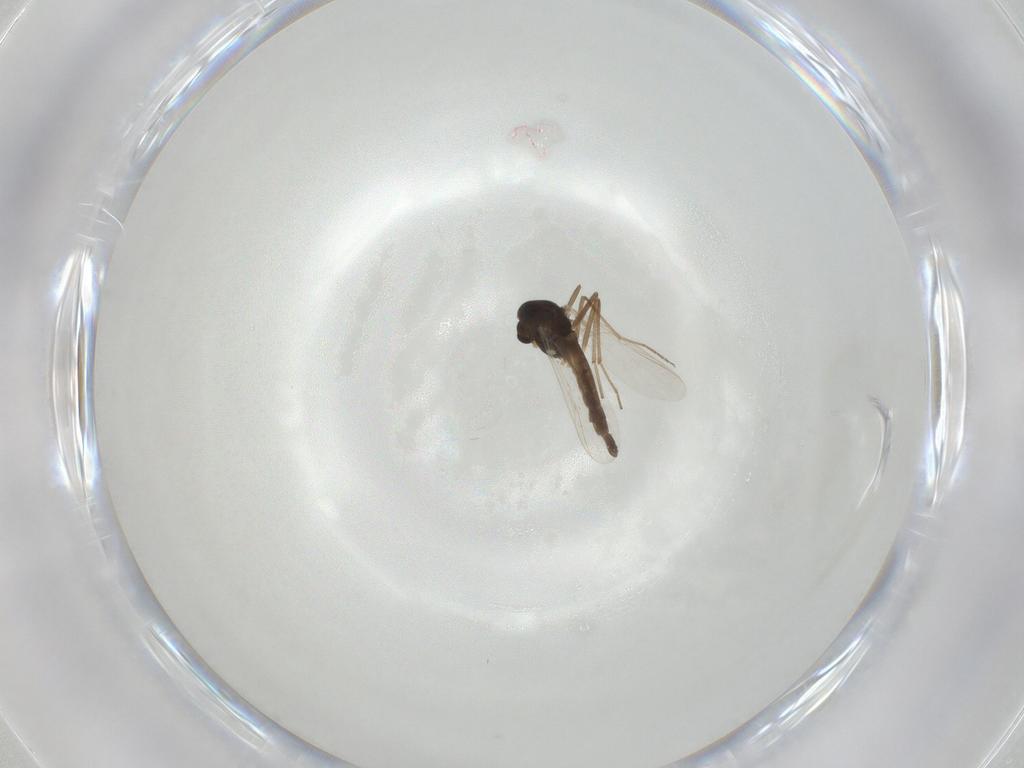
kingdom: Animalia
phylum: Arthropoda
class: Insecta
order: Diptera
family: Chironomidae
